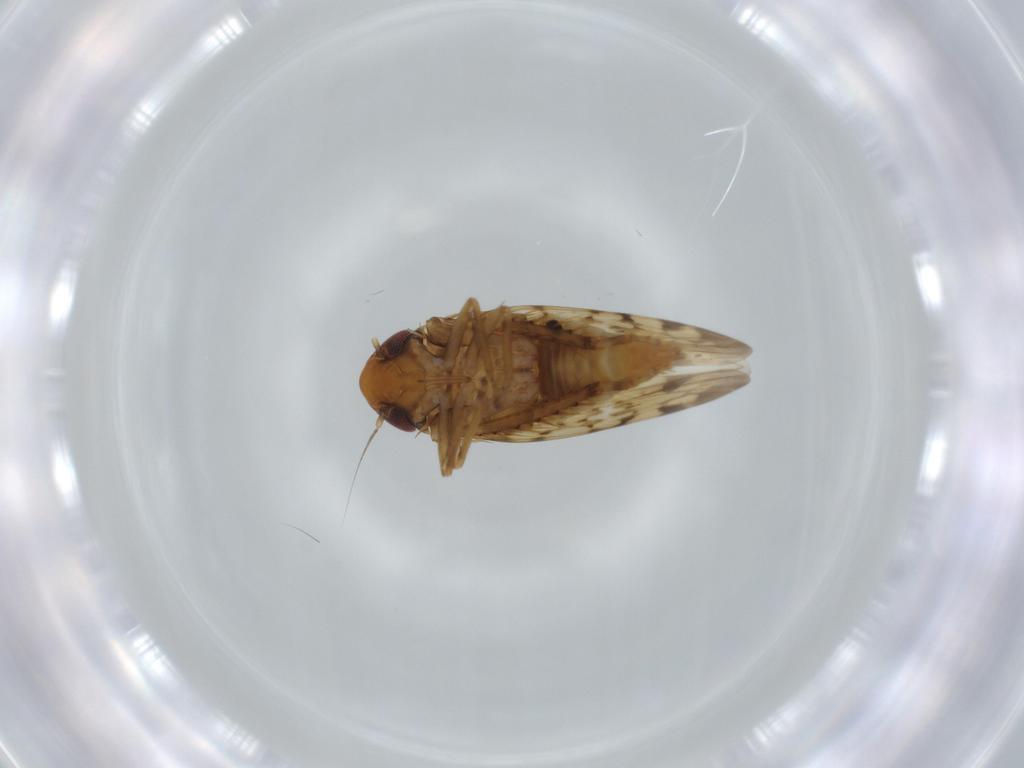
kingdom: Animalia
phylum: Arthropoda
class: Insecta
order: Hemiptera
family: Cicadellidae
